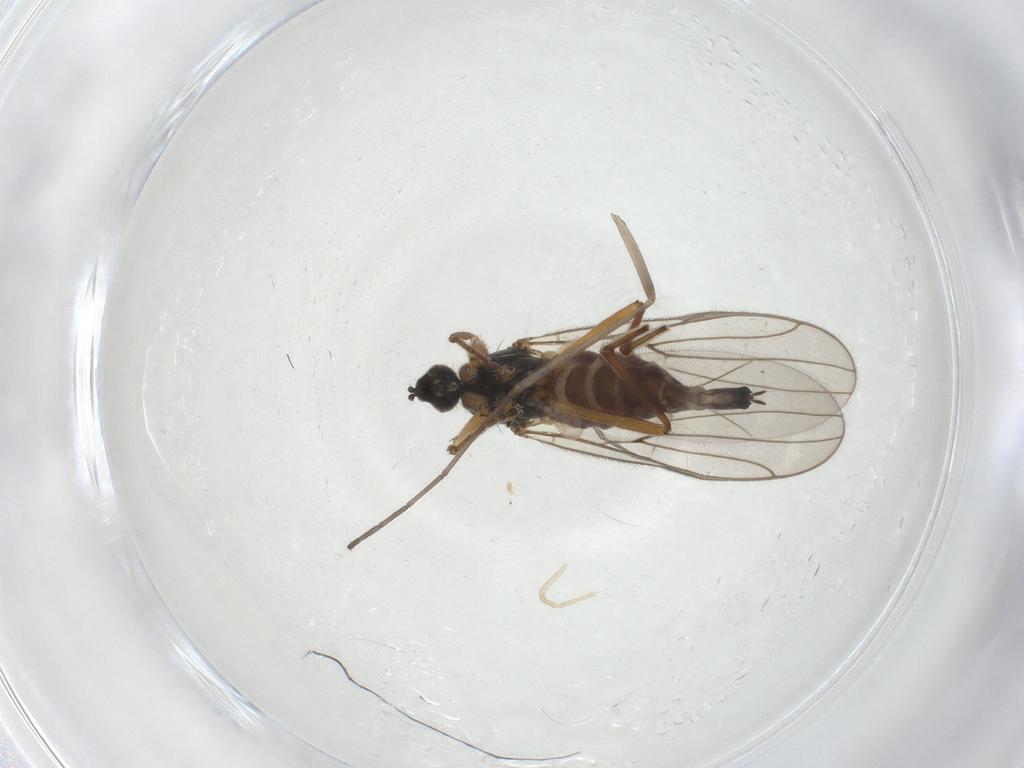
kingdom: Animalia
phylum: Arthropoda
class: Insecta
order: Diptera
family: Hybotidae
